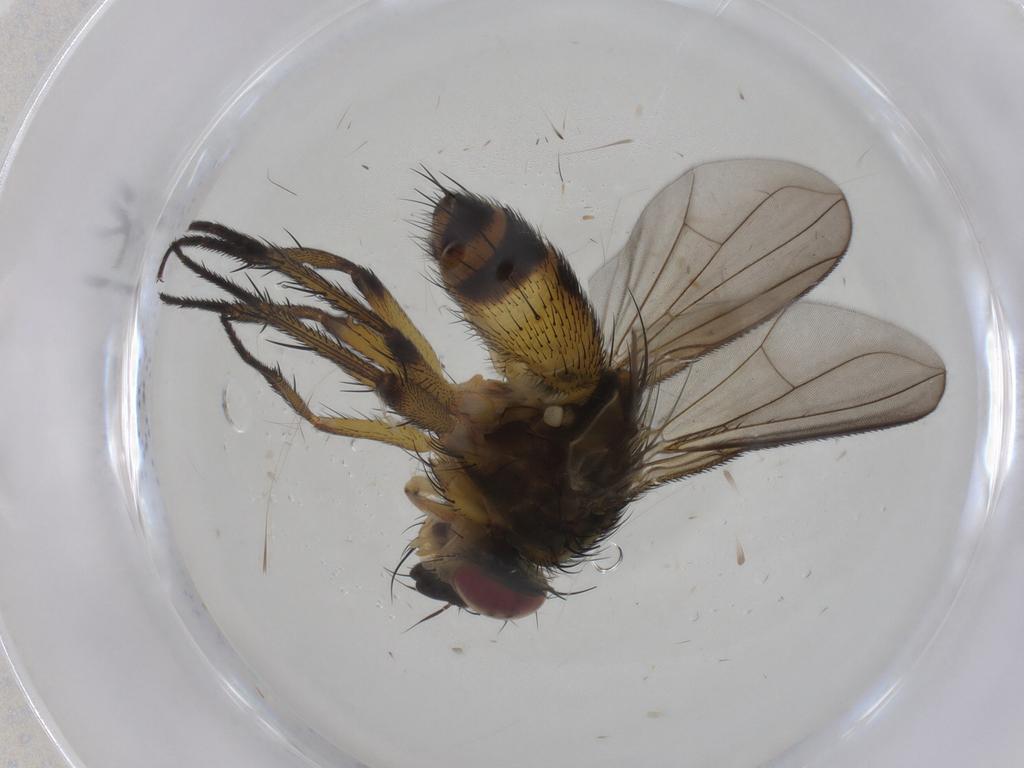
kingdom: Animalia
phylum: Arthropoda
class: Insecta
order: Diptera
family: Tachinidae
